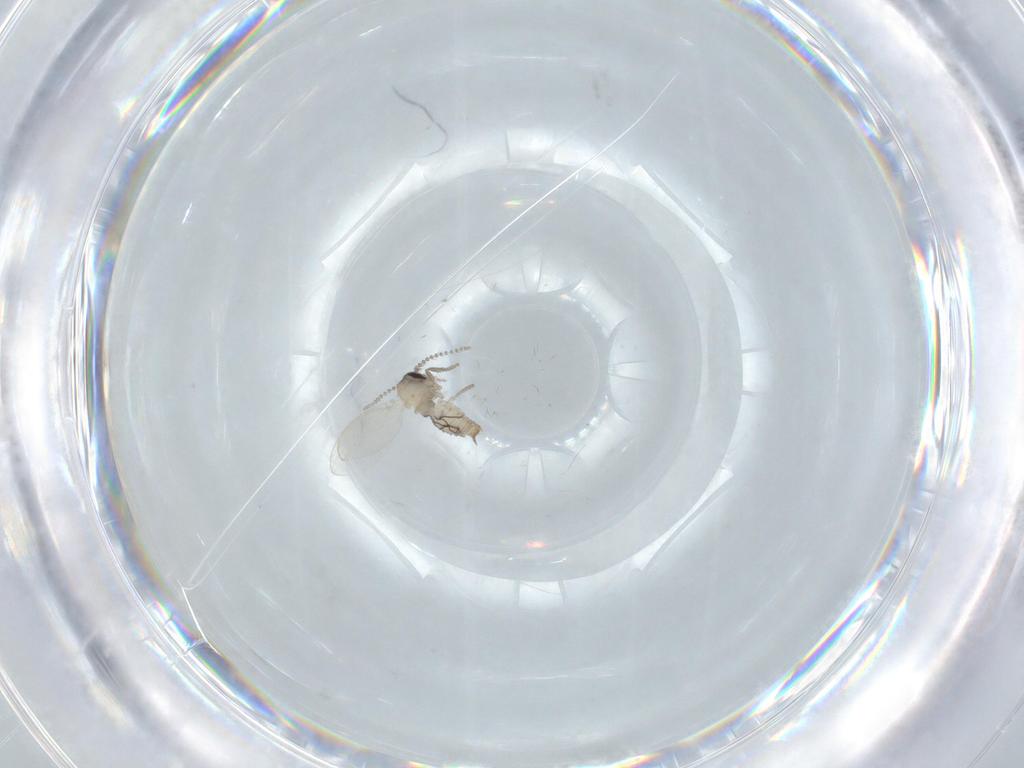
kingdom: Animalia
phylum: Arthropoda
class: Insecta
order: Diptera
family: Psychodidae
